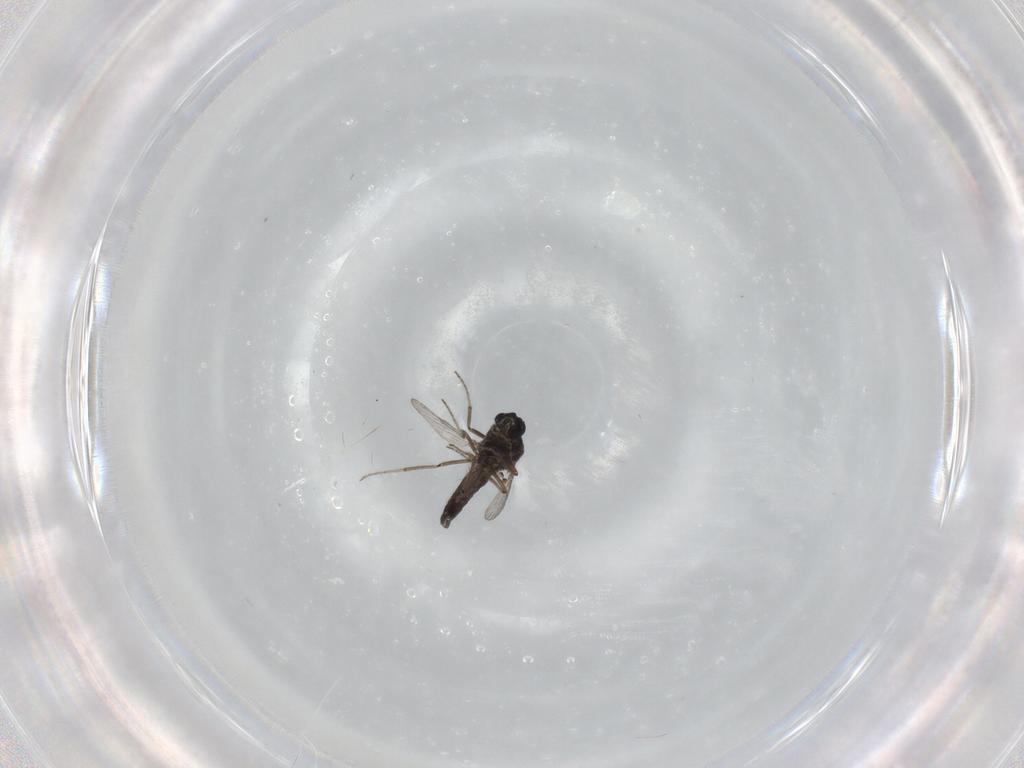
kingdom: Animalia
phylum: Arthropoda
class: Insecta
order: Diptera
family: Ceratopogonidae
